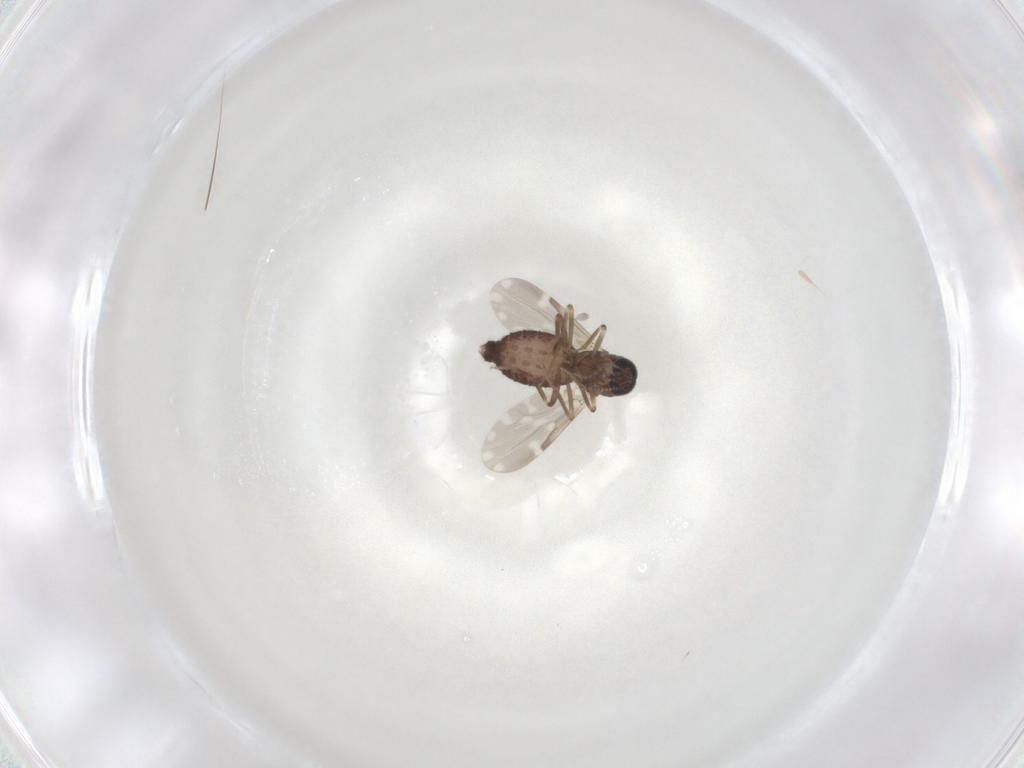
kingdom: Animalia
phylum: Arthropoda
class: Insecta
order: Diptera
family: Ceratopogonidae
